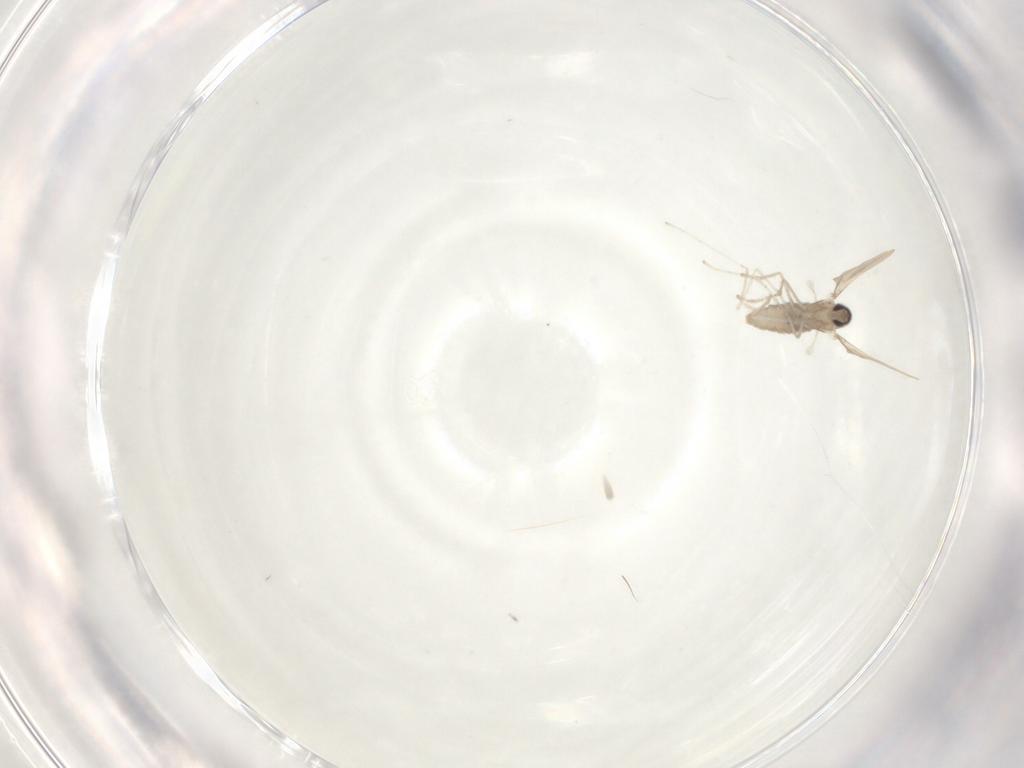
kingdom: Animalia
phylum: Arthropoda
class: Insecta
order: Diptera
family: Cecidomyiidae
